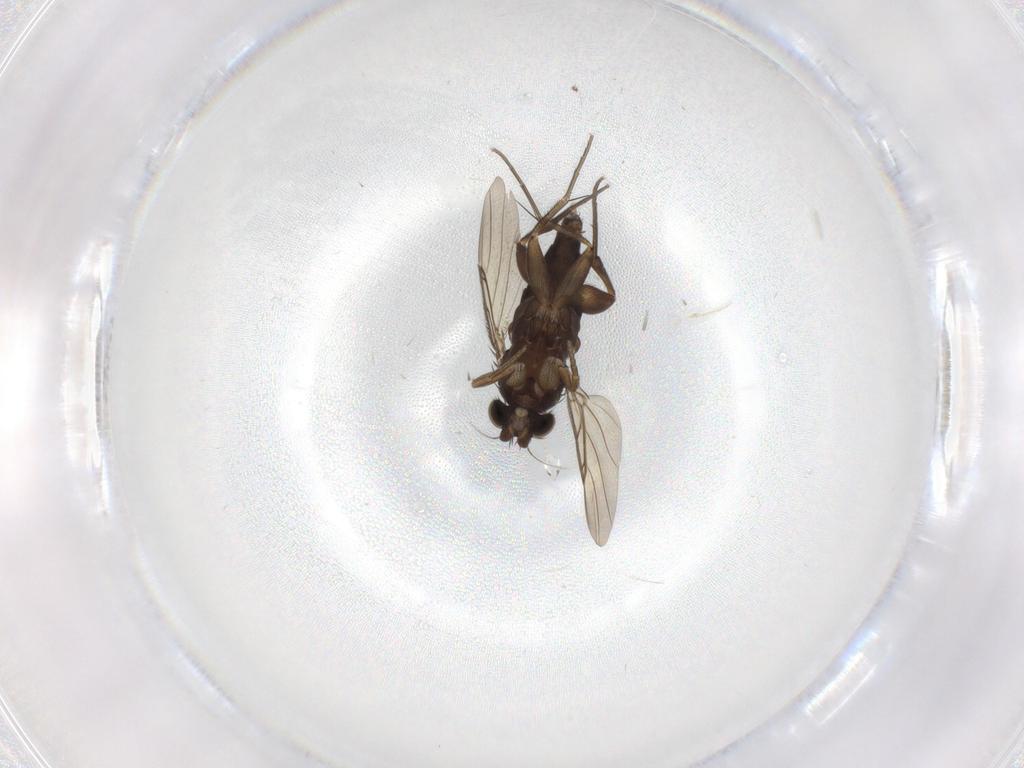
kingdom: Animalia
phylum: Arthropoda
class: Insecta
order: Diptera
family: Phoridae
